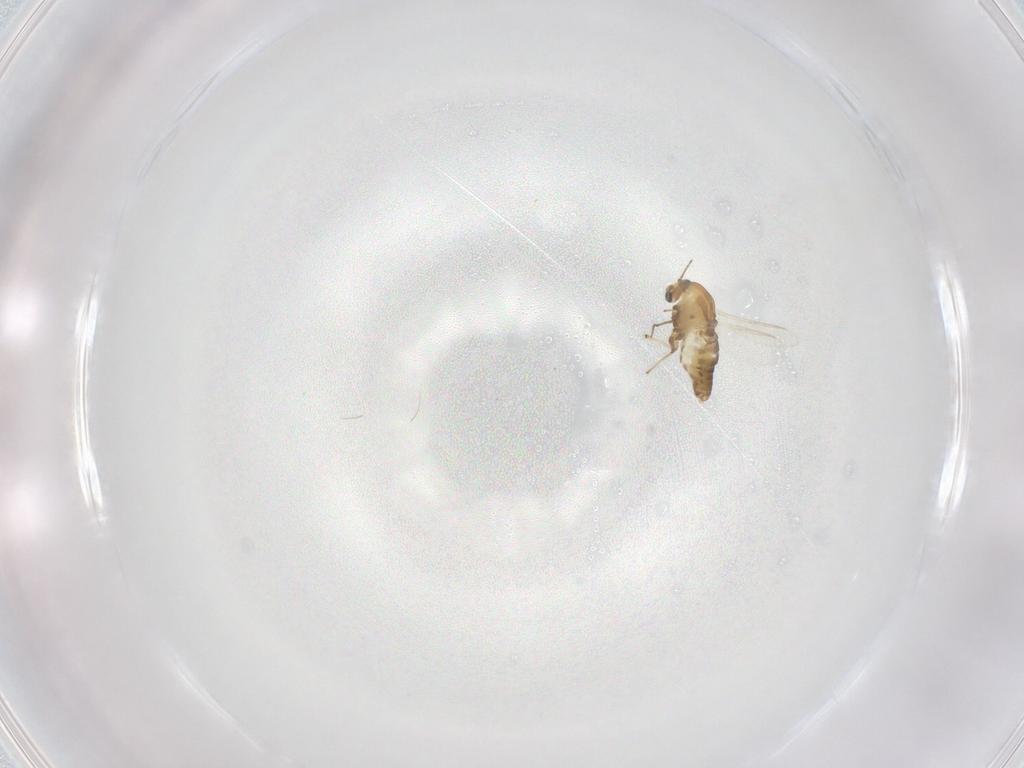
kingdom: Animalia
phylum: Arthropoda
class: Insecta
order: Diptera
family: Chironomidae
